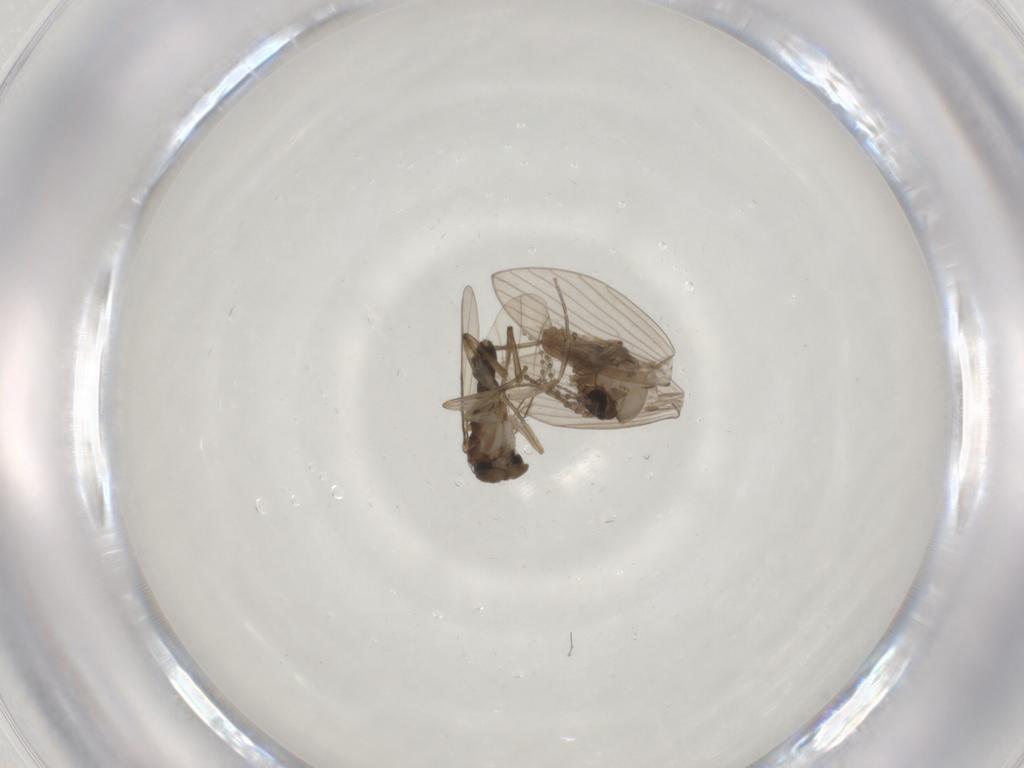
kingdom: Animalia
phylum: Arthropoda
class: Insecta
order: Diptera
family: Psychodidae
